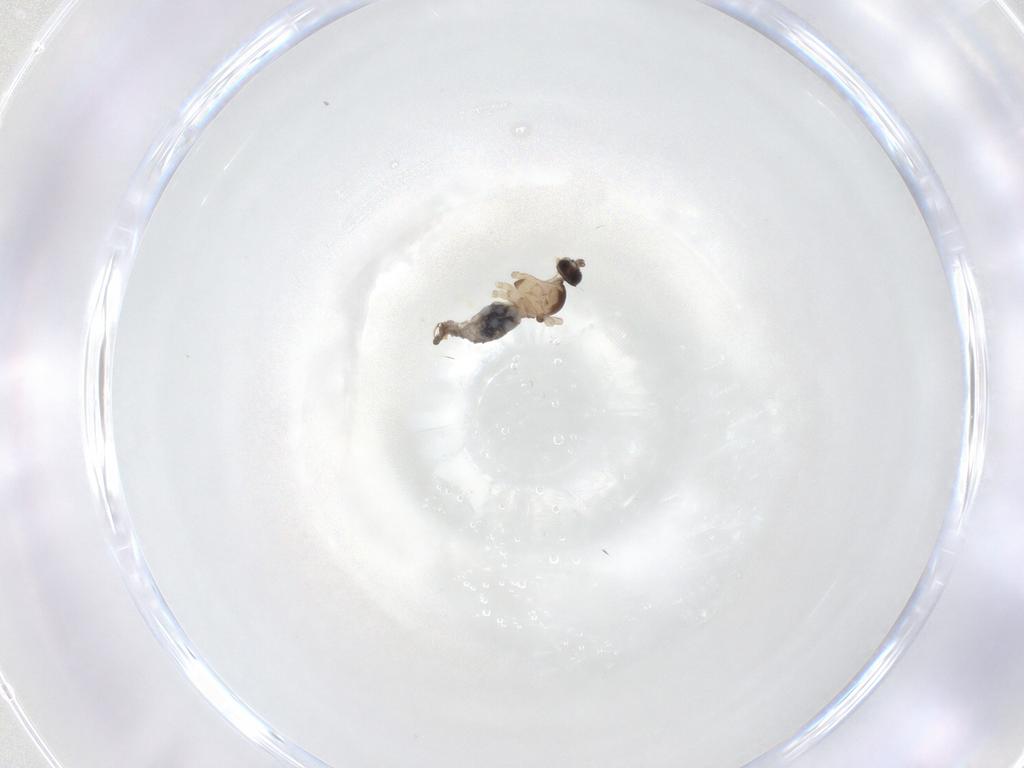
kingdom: Animalia
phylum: Arthropoda
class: Insecta
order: Diptera
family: Cecidomyiidae
